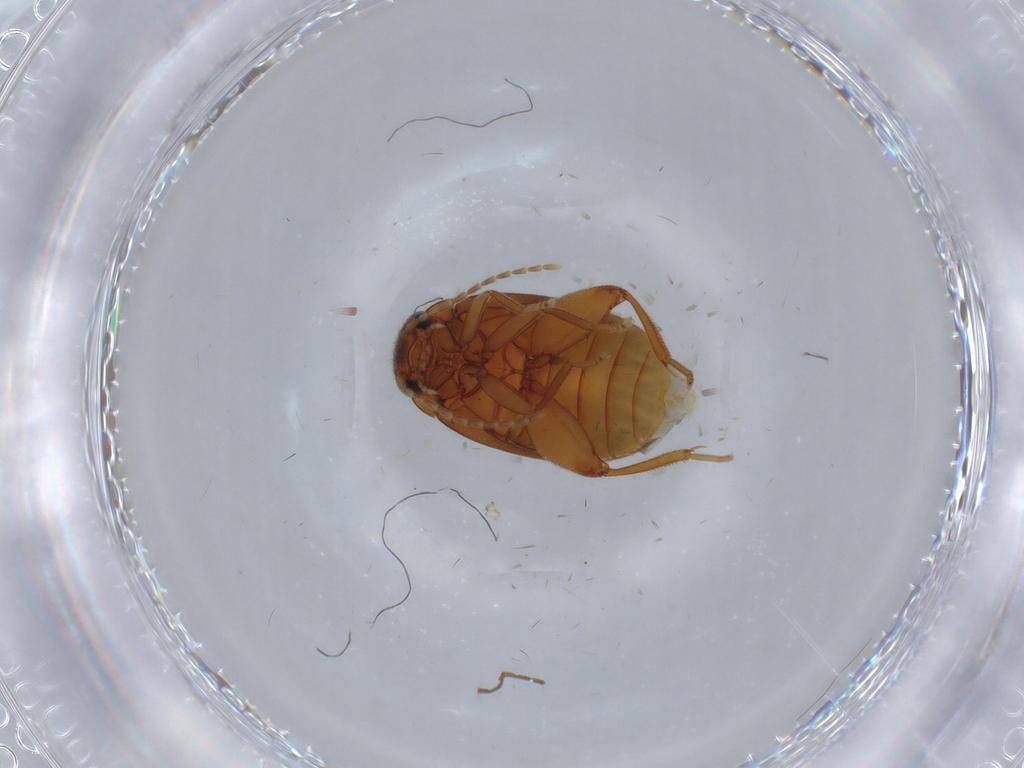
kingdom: Animalia
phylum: Arthropoda
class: Insecta
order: Coleoptera
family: Scirtidae
